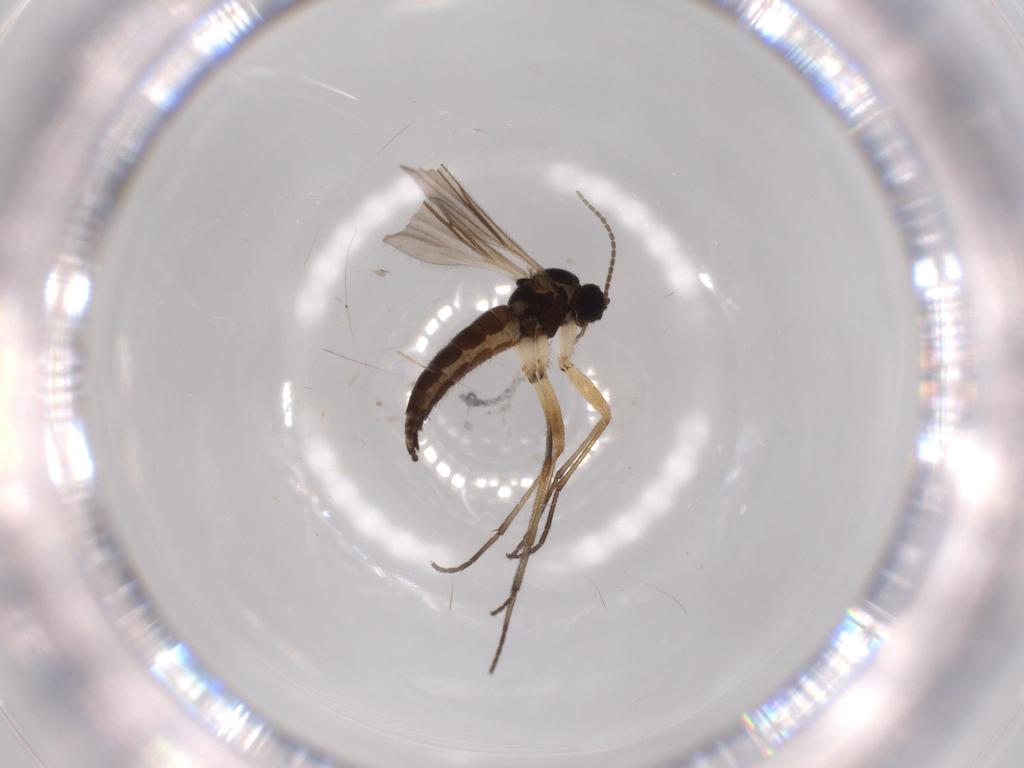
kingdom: Animalia
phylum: Arthropoda
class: Insecta
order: Diptera
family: Sciaridae
